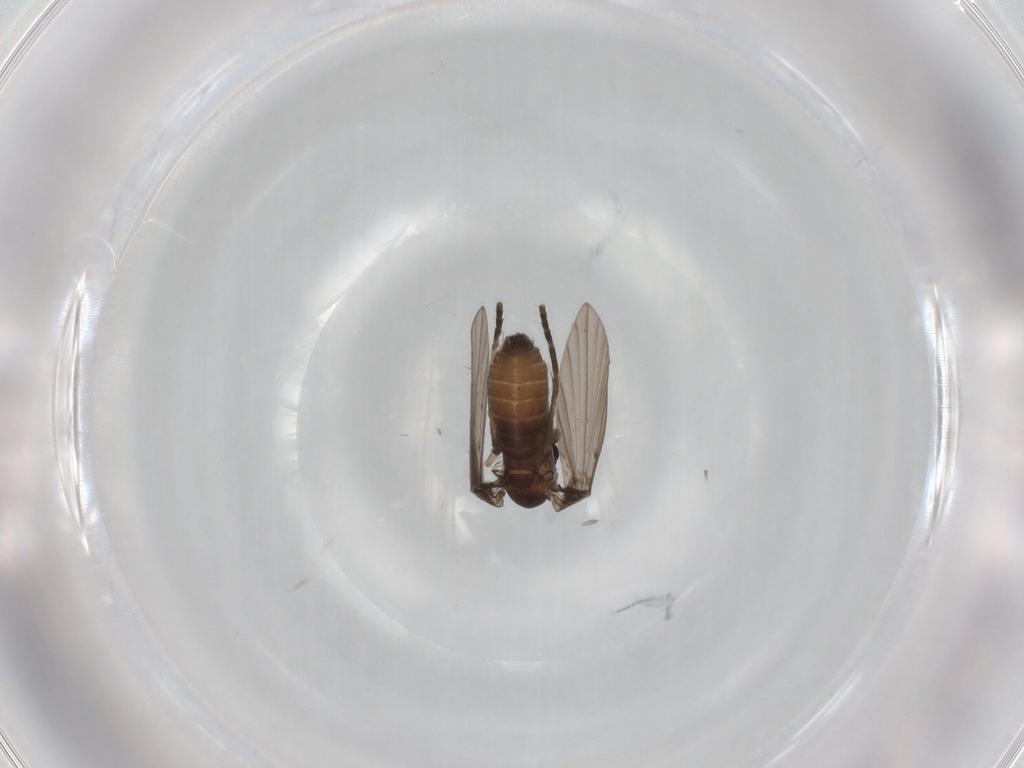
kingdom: Animalia
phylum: Arthropoda
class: Insecta
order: Diptera
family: Psychodidae
